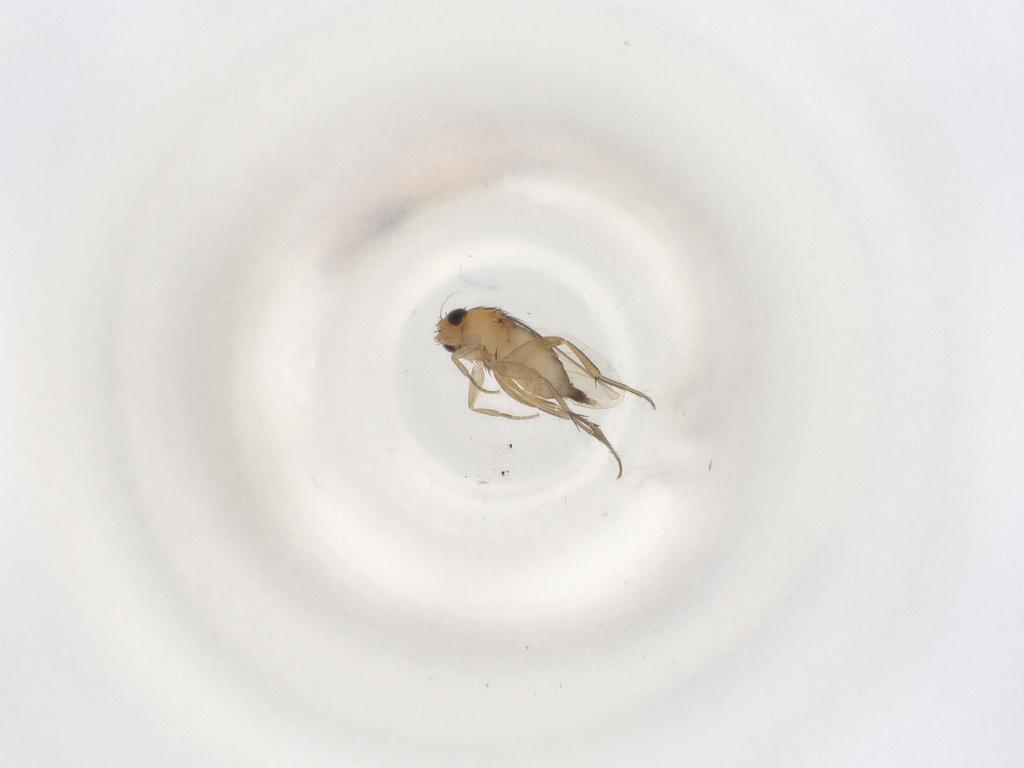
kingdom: Animalia
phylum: Arthropoda
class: Insecta
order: Diptera
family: Phoridae
